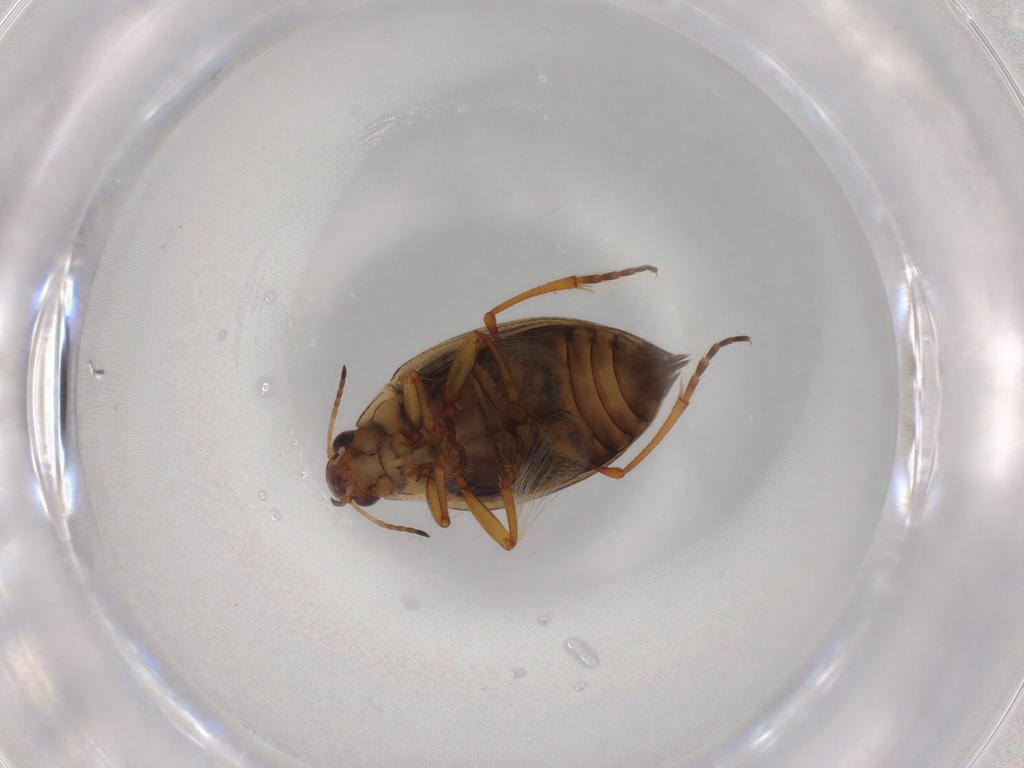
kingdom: Animalia
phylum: Arthropoda
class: Insecta
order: Coleoptera
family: Haliplidae
